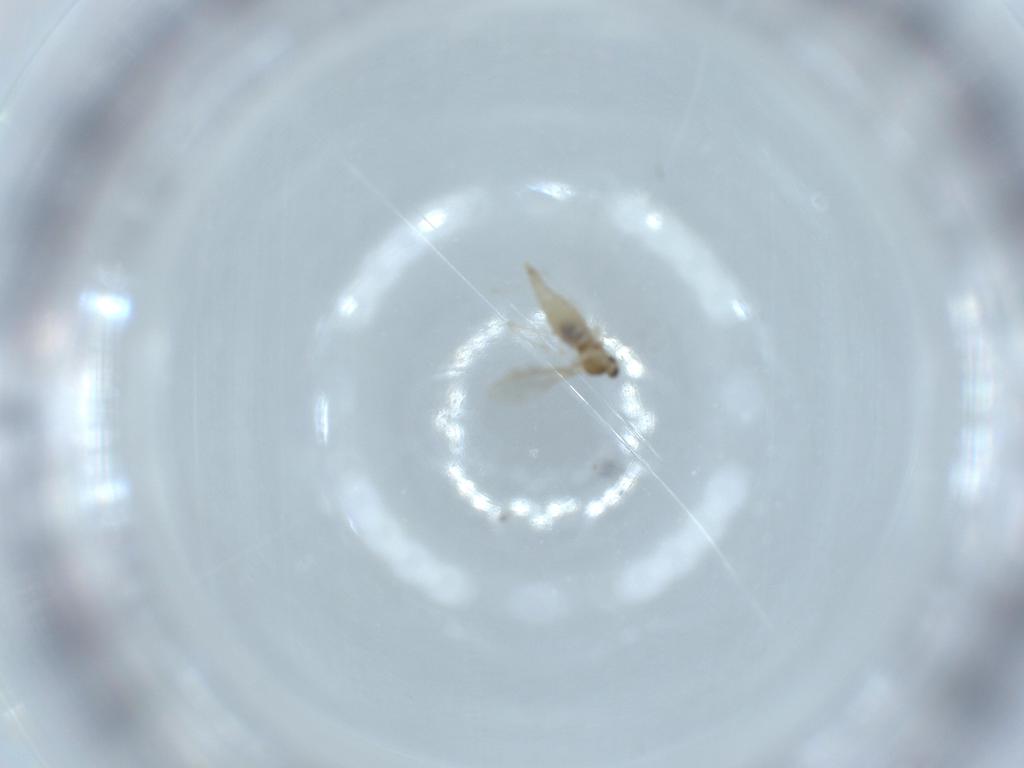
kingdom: Animalia
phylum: Arthropoda
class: Insecta
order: Diptera
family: Cecidomyiidae
